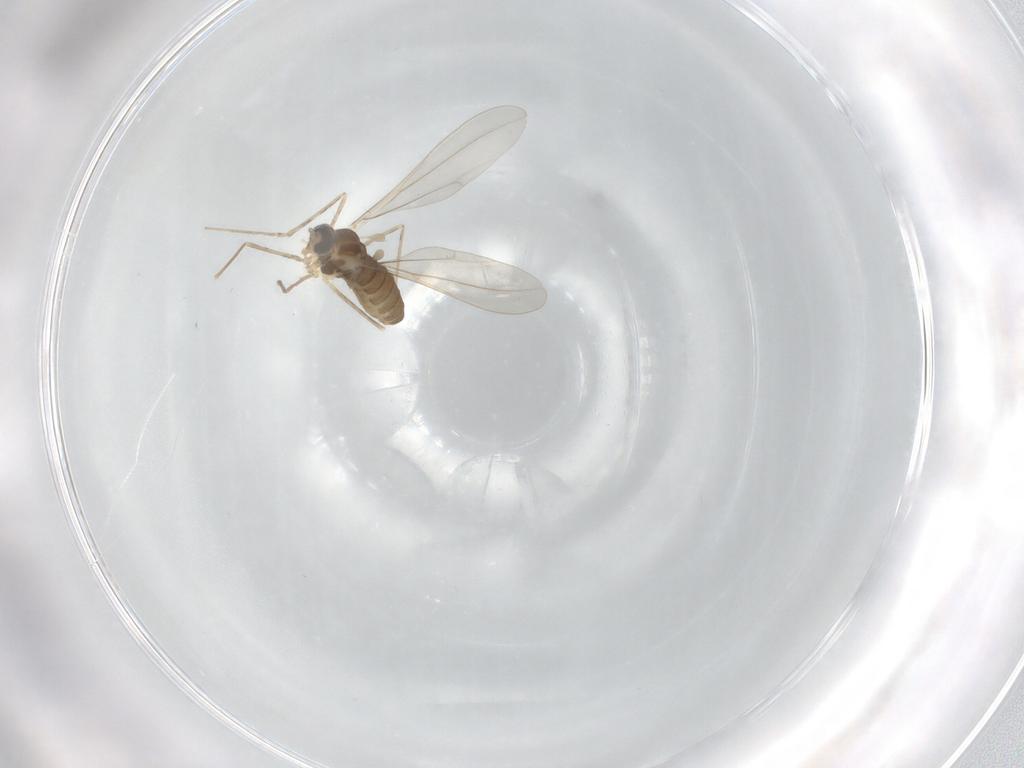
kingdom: Animalia
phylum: Arthropoda
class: Insecta
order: Diptera
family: Cecidomyiidae
